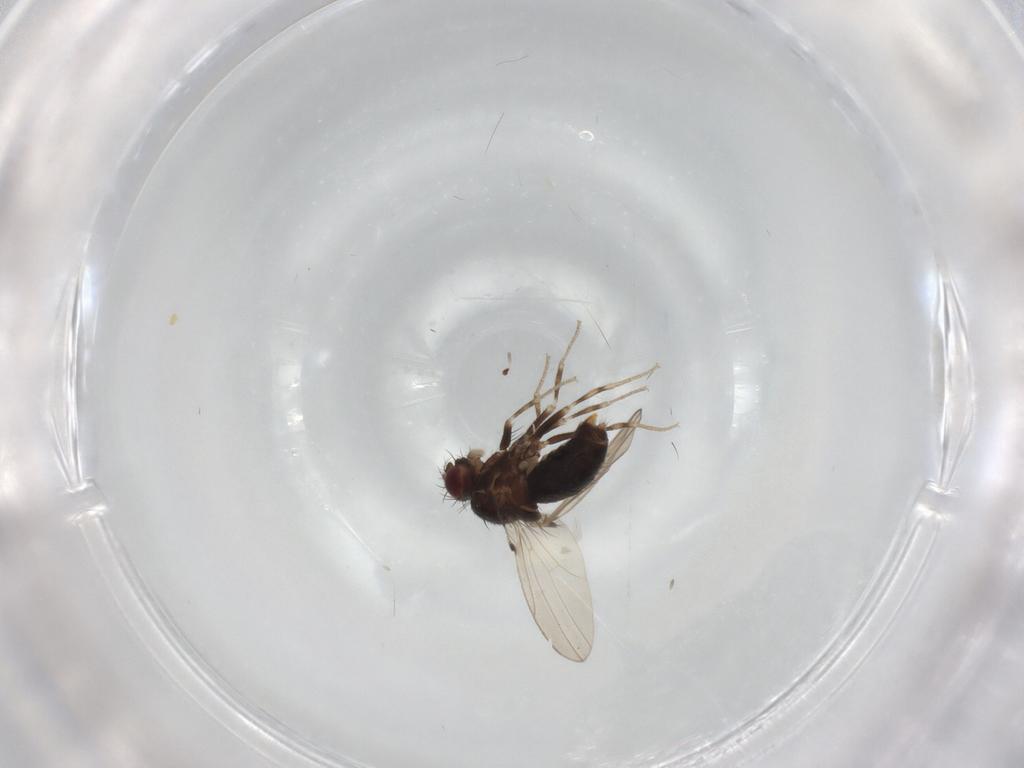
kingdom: Animalia
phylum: Arthropoda
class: Insecta
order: Diptera
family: Drosophilidae
